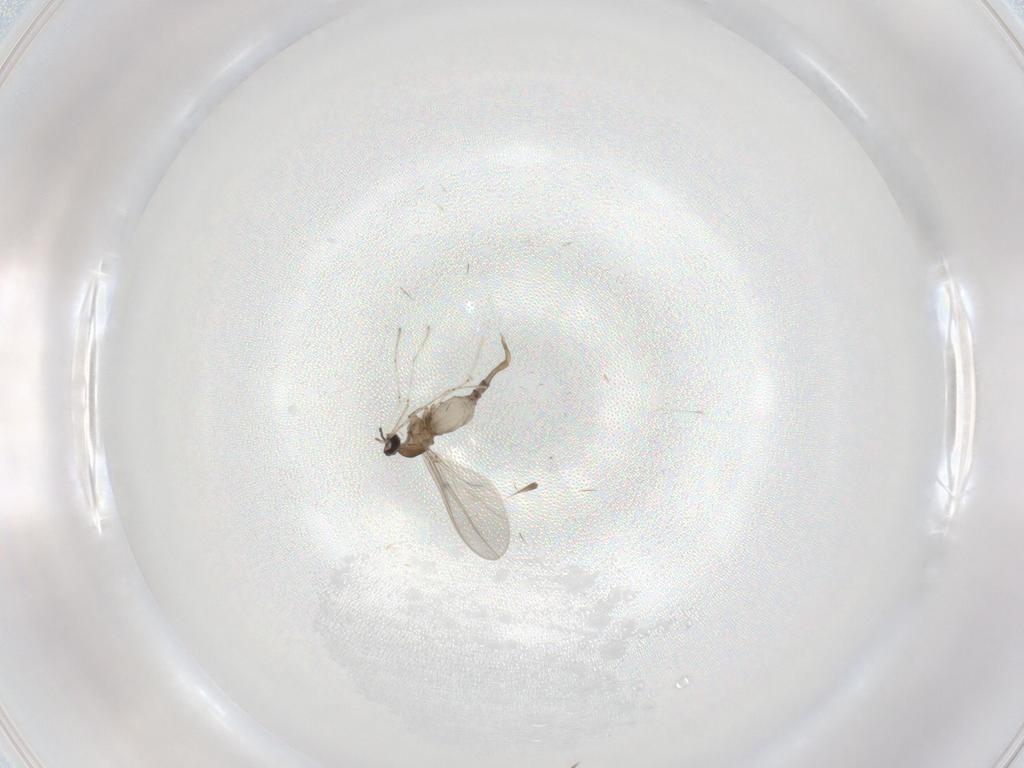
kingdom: Animalia
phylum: Arthropoda
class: Insecta
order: Diptera
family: Cecidomyiidae
